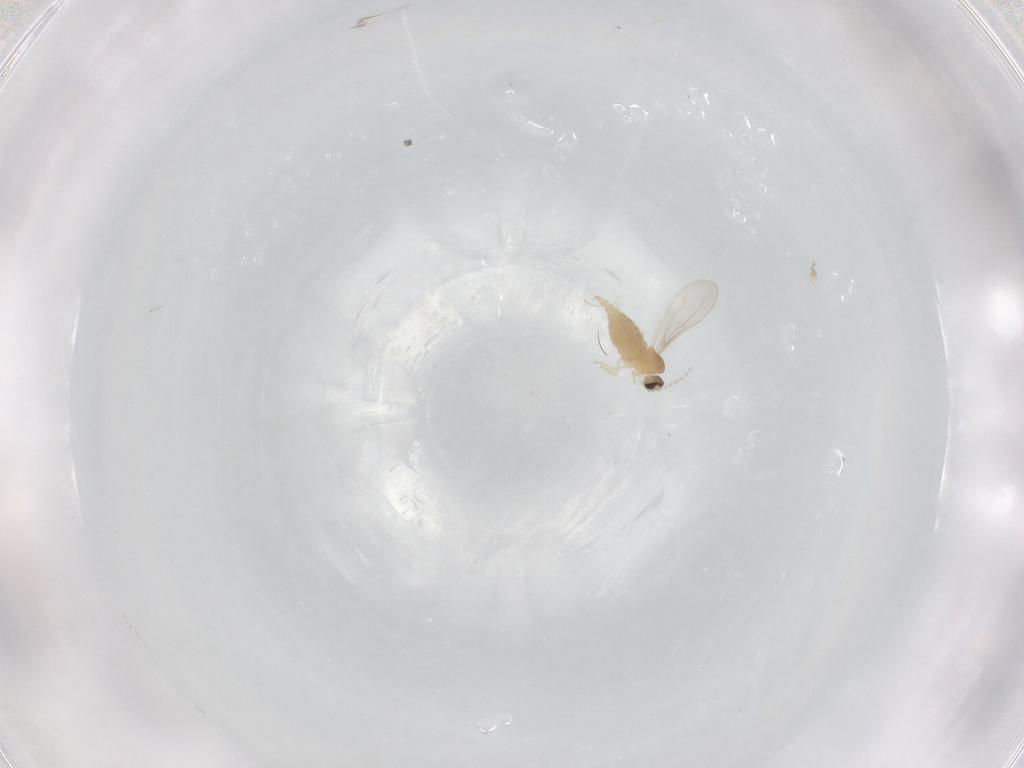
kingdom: Animalia
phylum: Arthropoda
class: Insecta
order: Diptera
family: Cecidomyiidae
